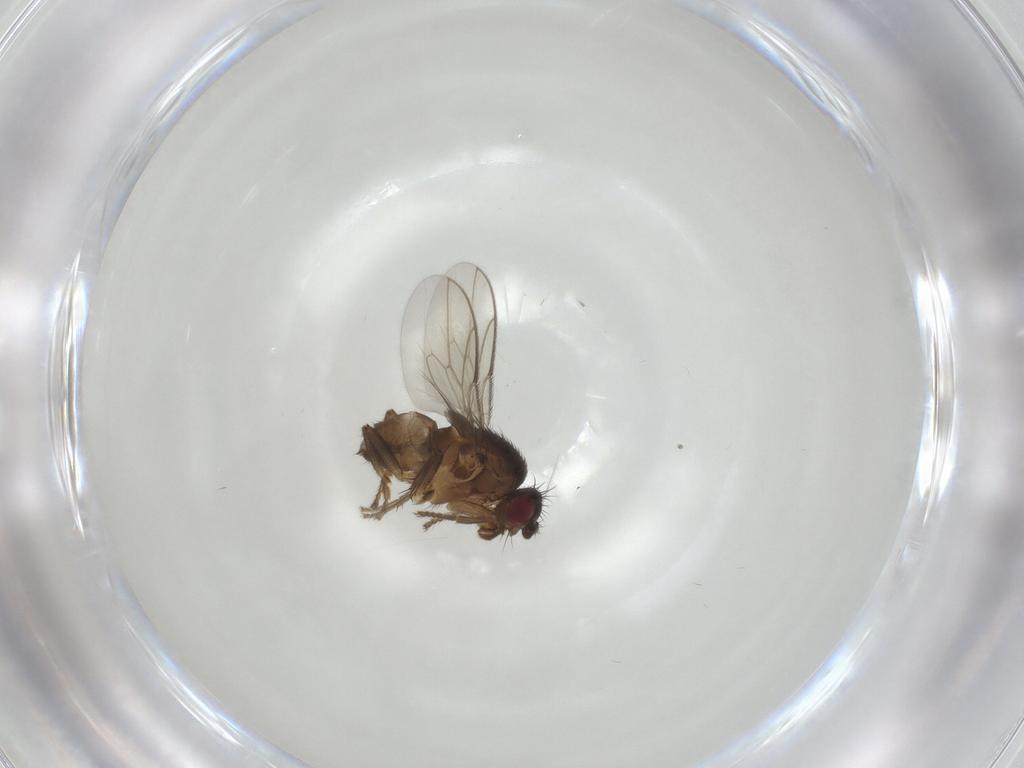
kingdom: Animalia
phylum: Arthropoda
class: Insecta
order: Diptera
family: Sphaeroceridae
